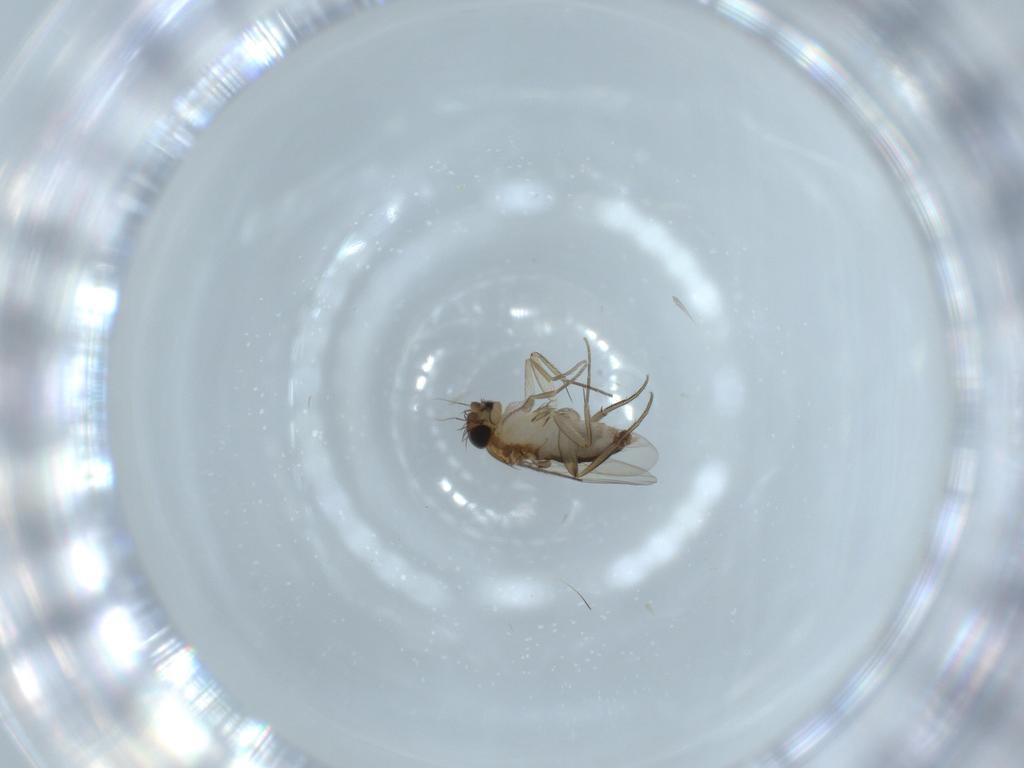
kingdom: Animalia
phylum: Arthropoda
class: Insecta
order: Diptera
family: Phoridae
